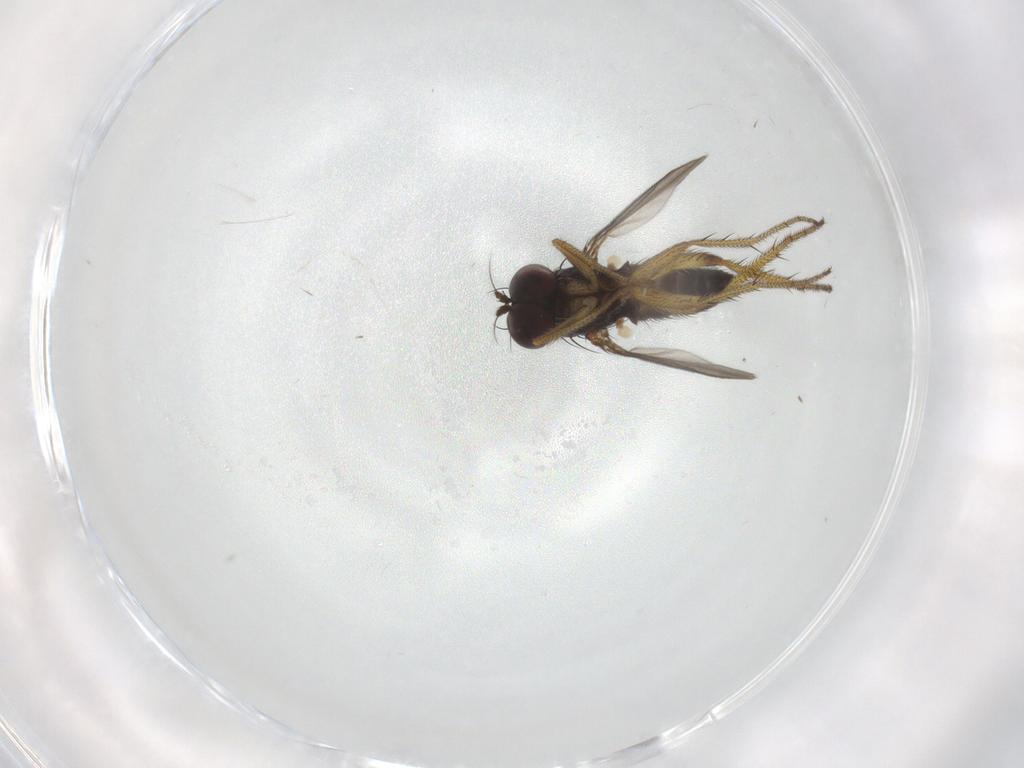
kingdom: Animalia
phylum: Arthropoda
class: Insecta
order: Diptera
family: Dolichopodidae
